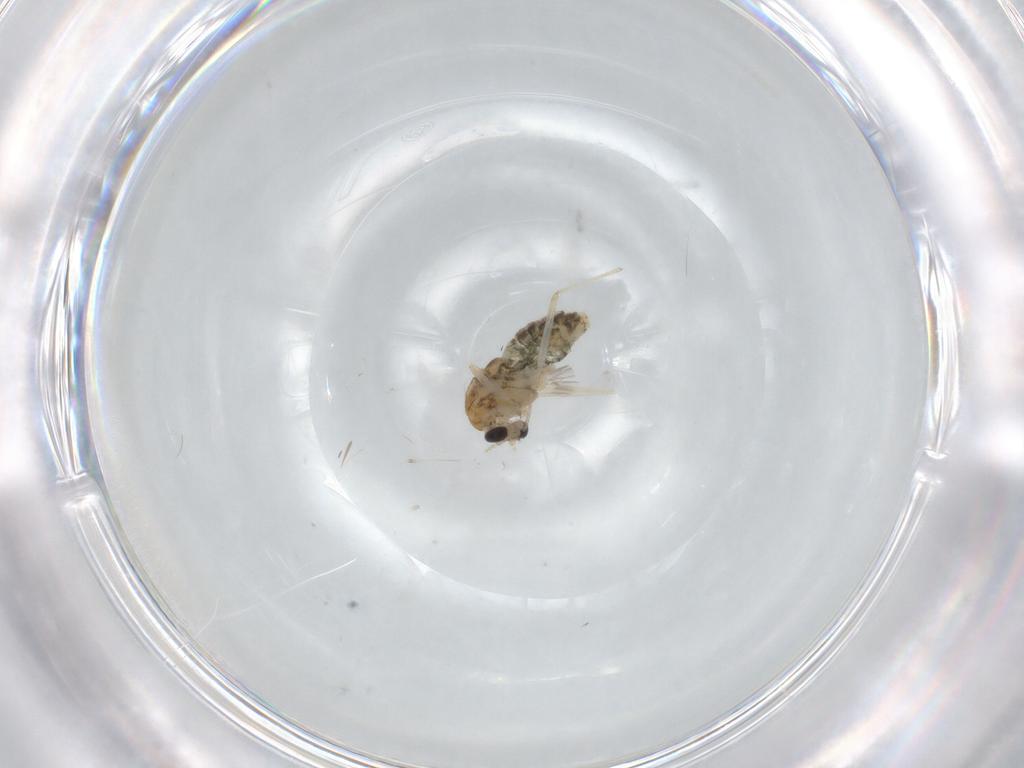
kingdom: Animalia
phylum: Arthropoda
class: Insecta
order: Diptera
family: Chironomidae
